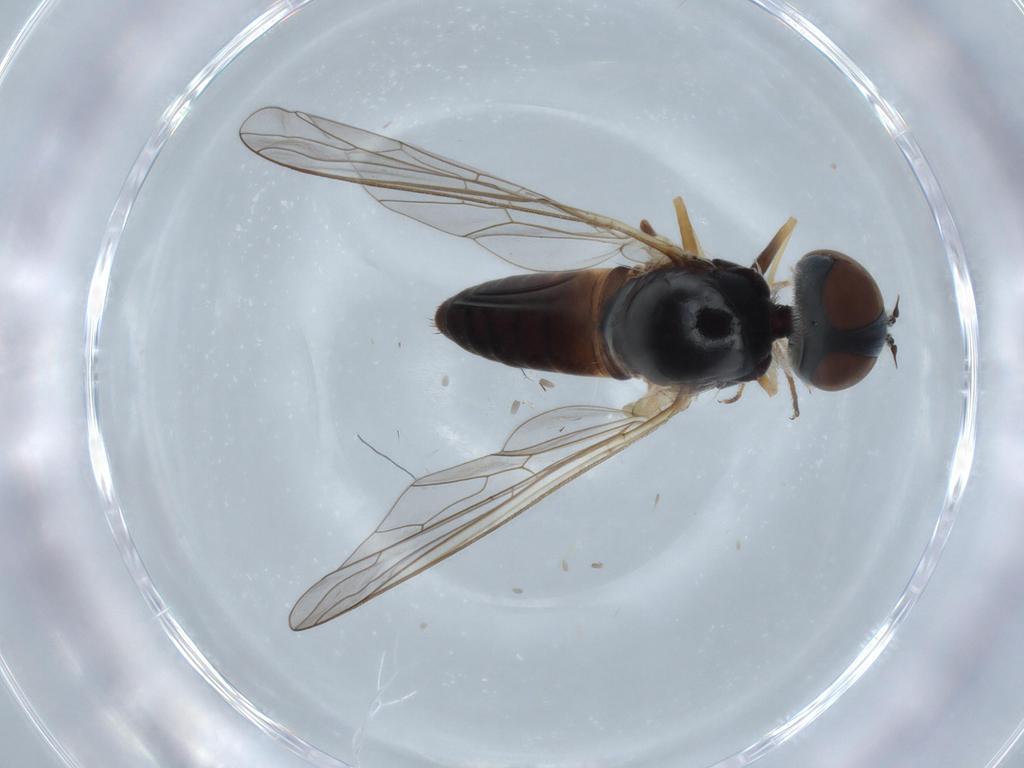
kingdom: Animalia
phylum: Arthropoda
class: Insecta
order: Diptera
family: Bombyliidae
